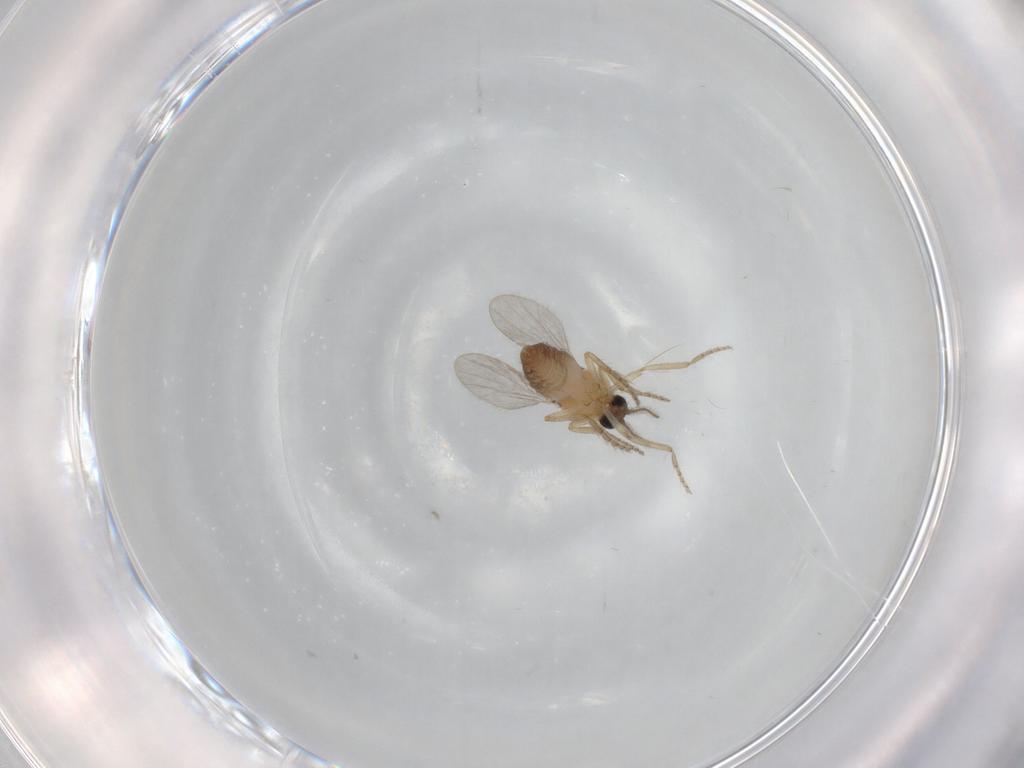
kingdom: Animalia
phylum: Arthropoda
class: Insecta
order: Diptera
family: Ceratopogonidae
